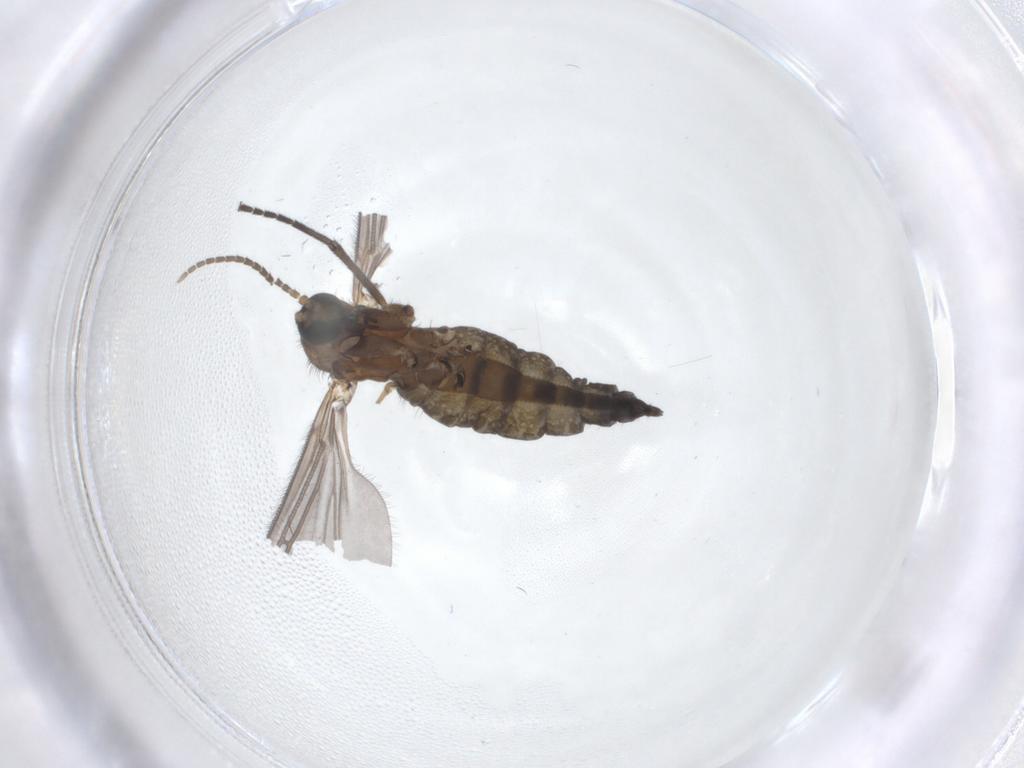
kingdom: Animalia
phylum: Arthropoda
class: Insecta
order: Diptera
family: Sciaridae
